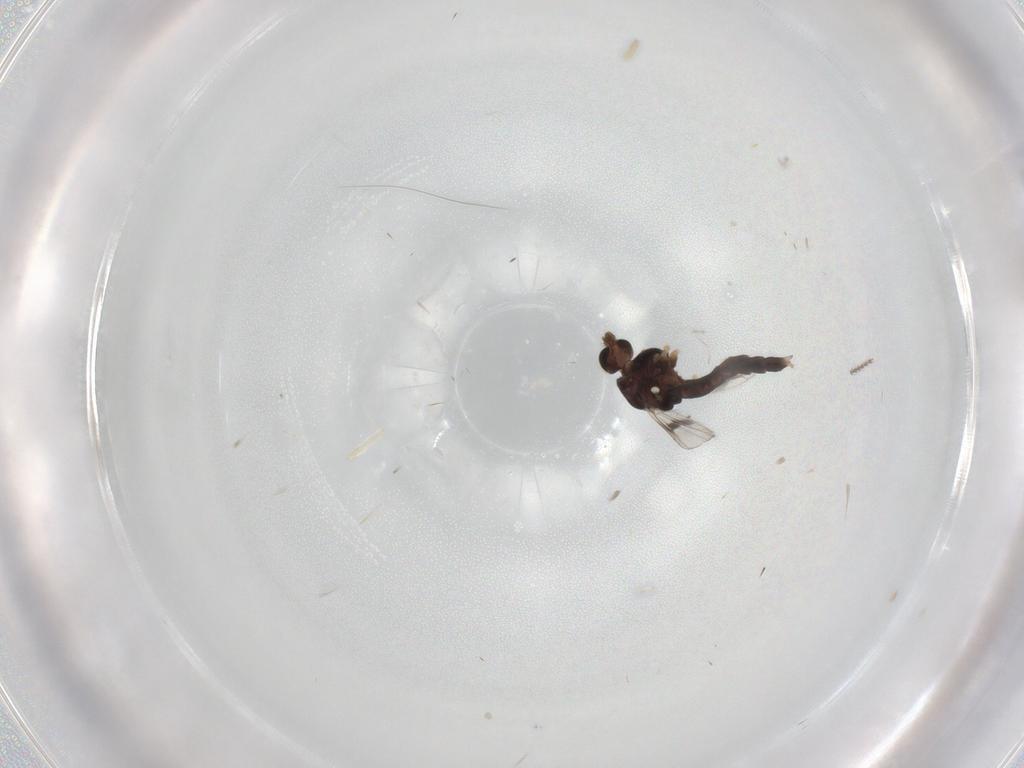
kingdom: Animalia
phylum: Arthropoda
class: Insecta
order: Diptera
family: Chironomidae
